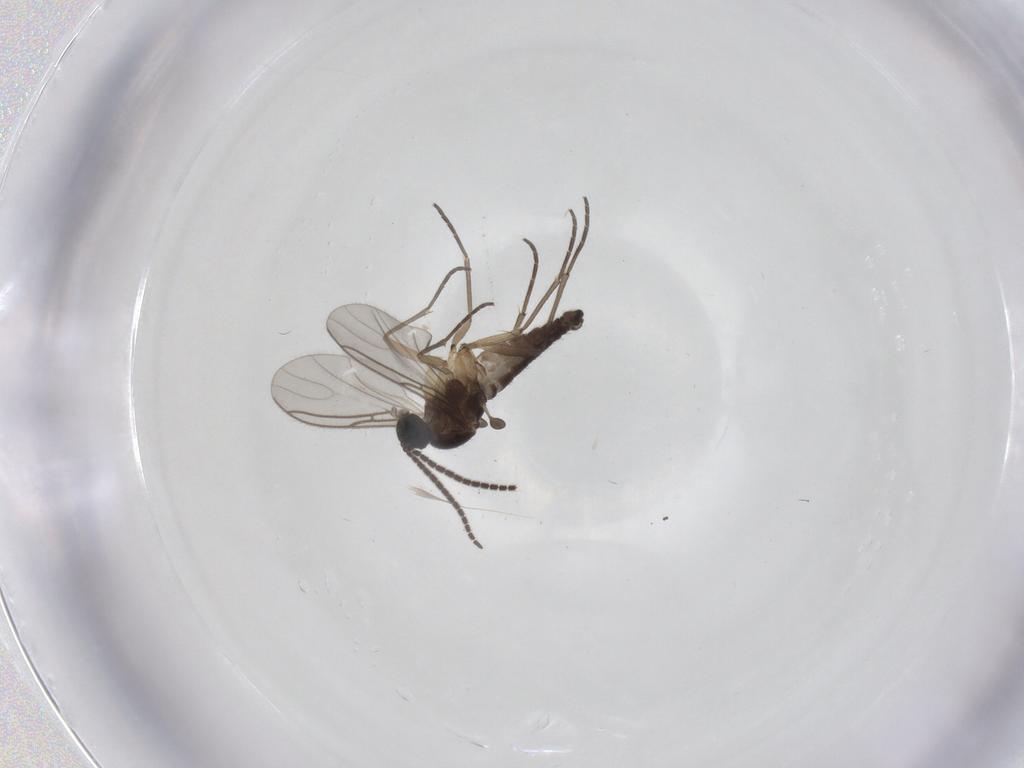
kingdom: Animalia
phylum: Arthropoda
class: Insecta
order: Diptera
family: Sciaridae
